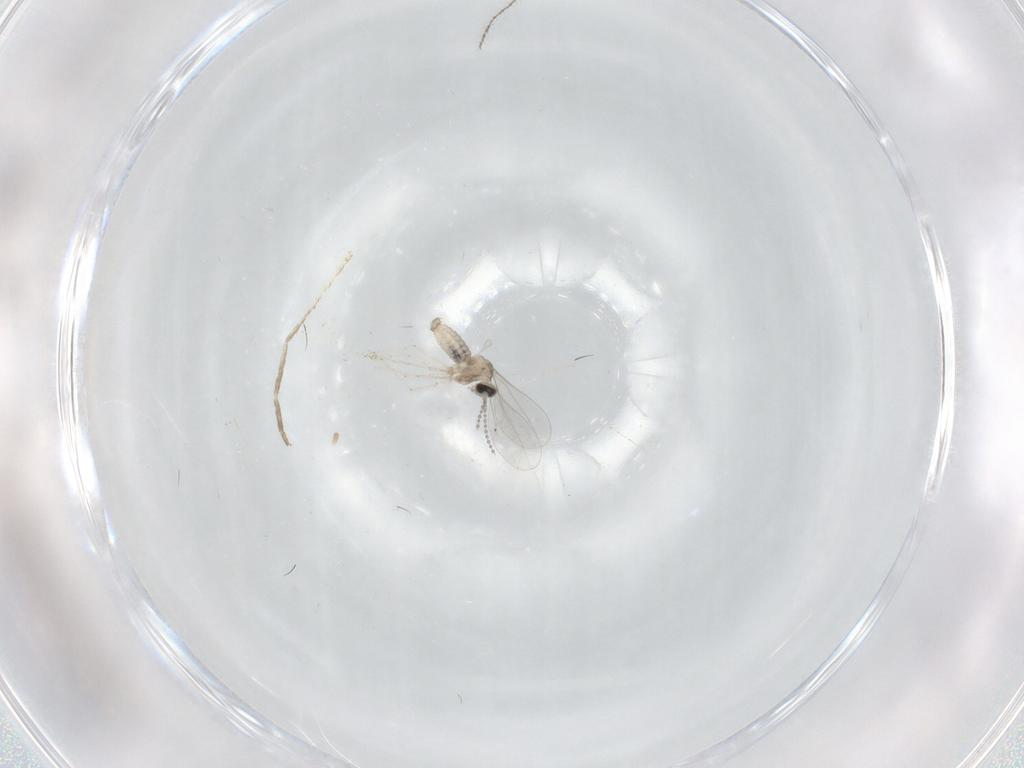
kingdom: Animalia
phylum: Arthropoda
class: Insecta
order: Diptera
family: Cecidomyiidae
